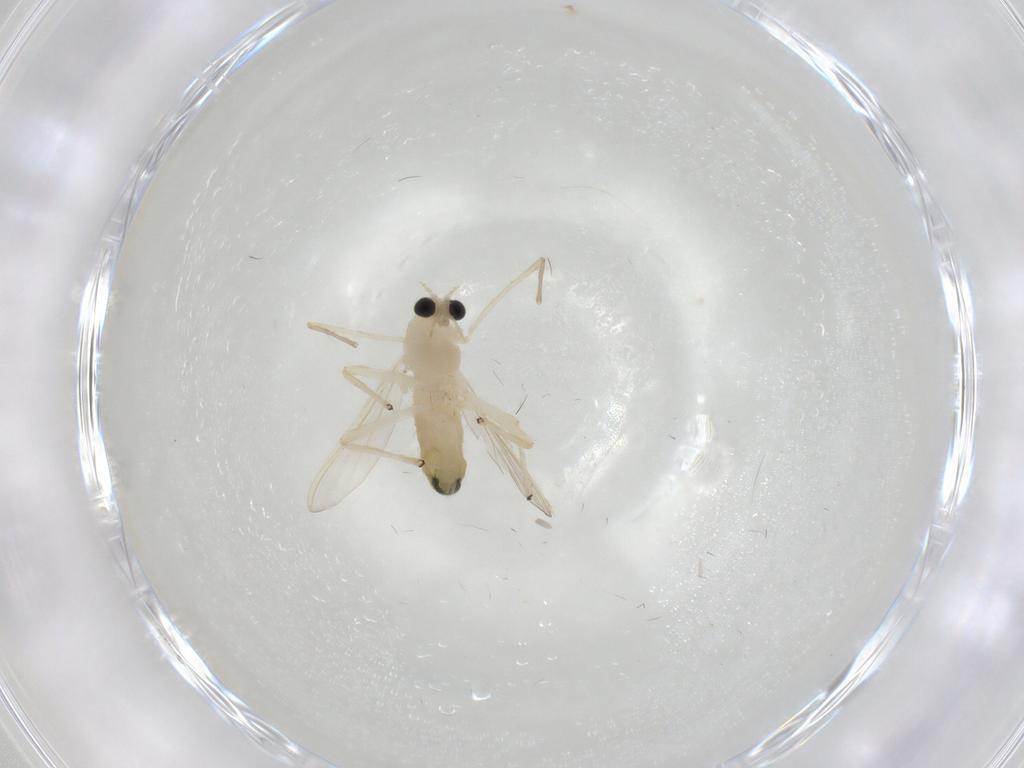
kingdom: Animalia
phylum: Arthropoda
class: Insecta
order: Diptera
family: Chironomidae
